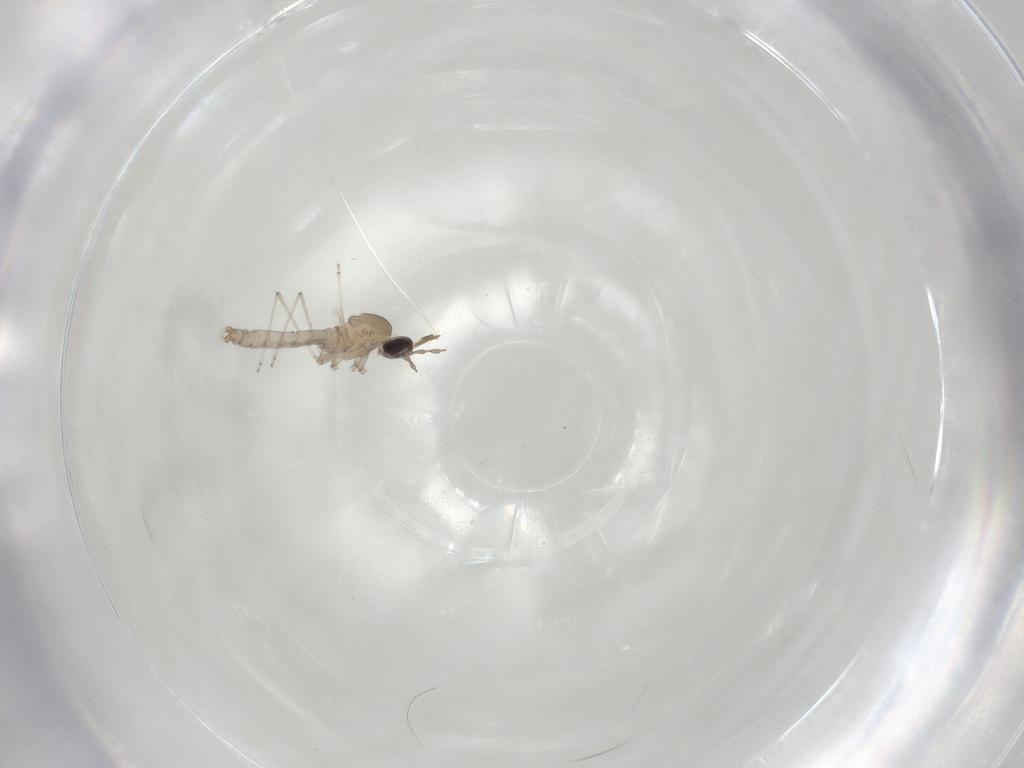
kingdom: Animalia
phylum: Arthropoda
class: Insecta
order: Diptera
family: Cecidomyiidae
